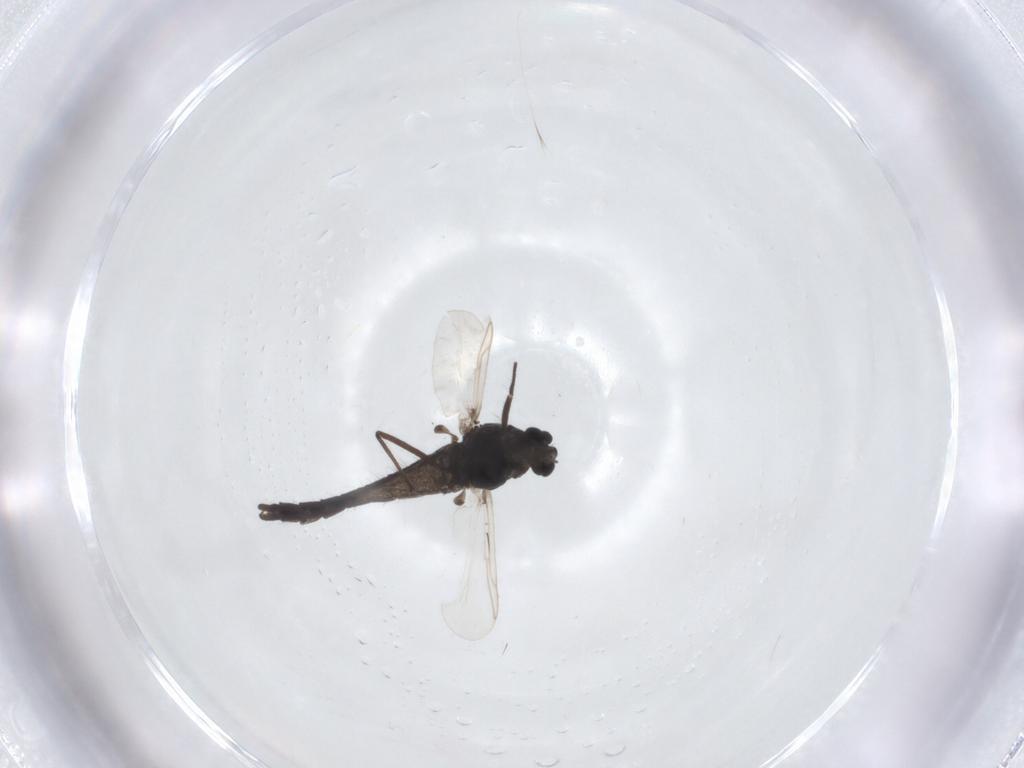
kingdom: Animalia
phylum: Arthropoda
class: Insecta
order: Diptera
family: Chironomidae
